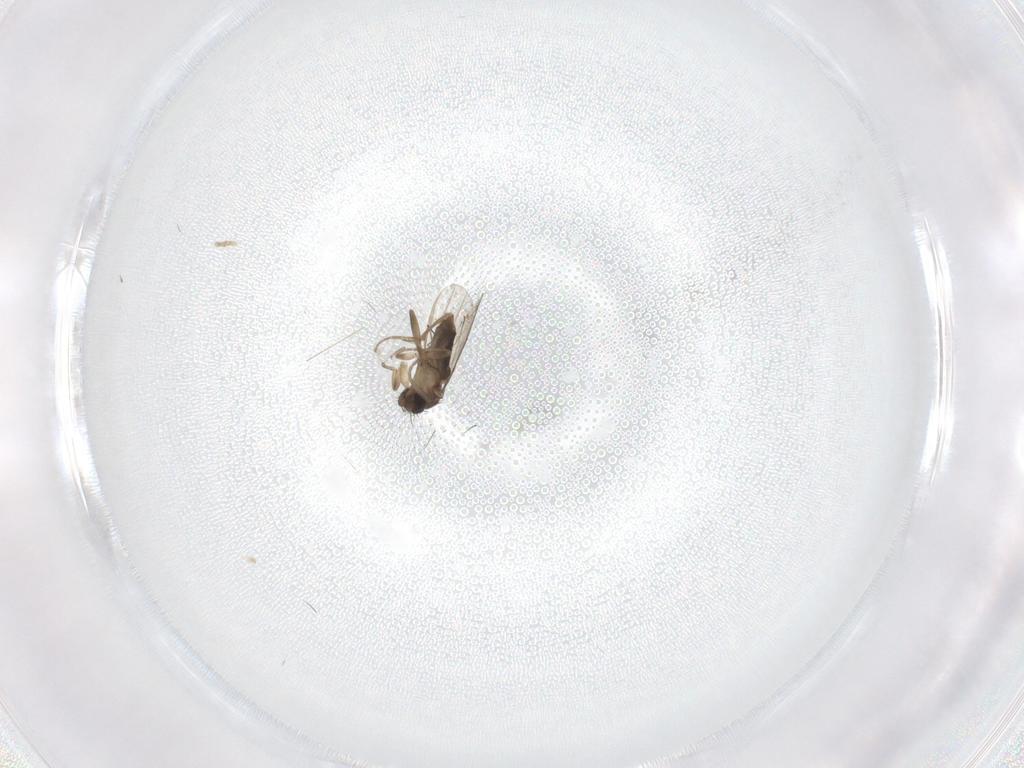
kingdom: Animalia
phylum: Arthropoda
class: Insecta
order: Diptera
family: Phoridae
